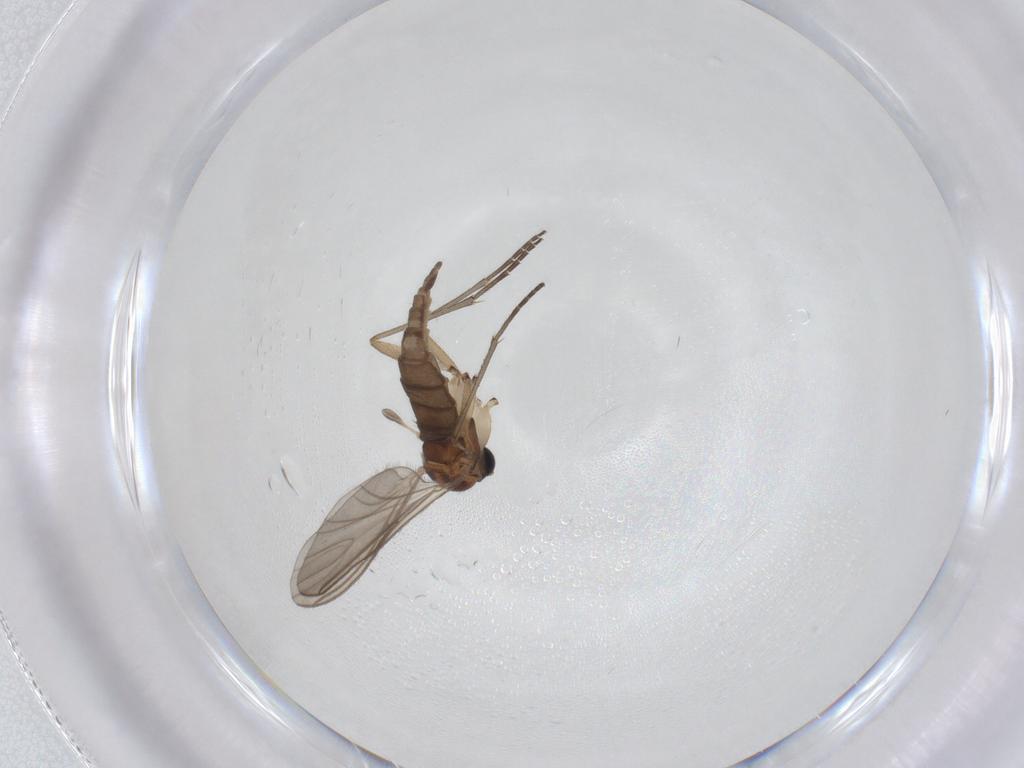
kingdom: Animalia
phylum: Arthropoda
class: Insecta
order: Diptera
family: Sciaridae
